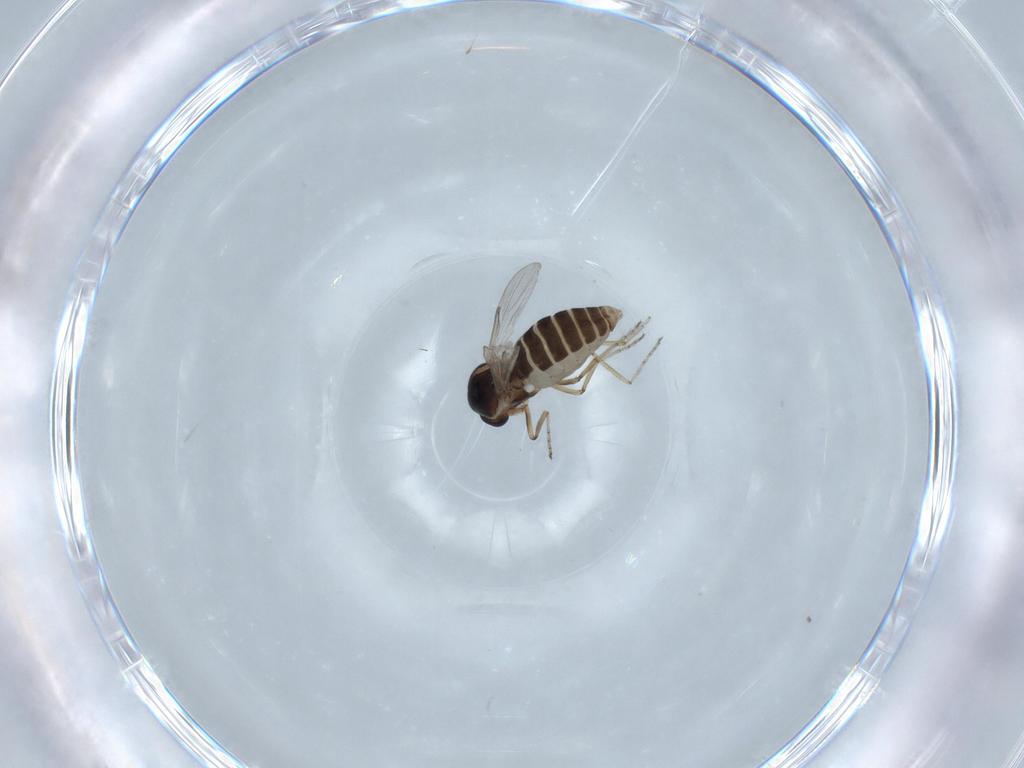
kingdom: Animalia
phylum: Arthropoda
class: Insecta
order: Diptera
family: Ceratopogonidae
